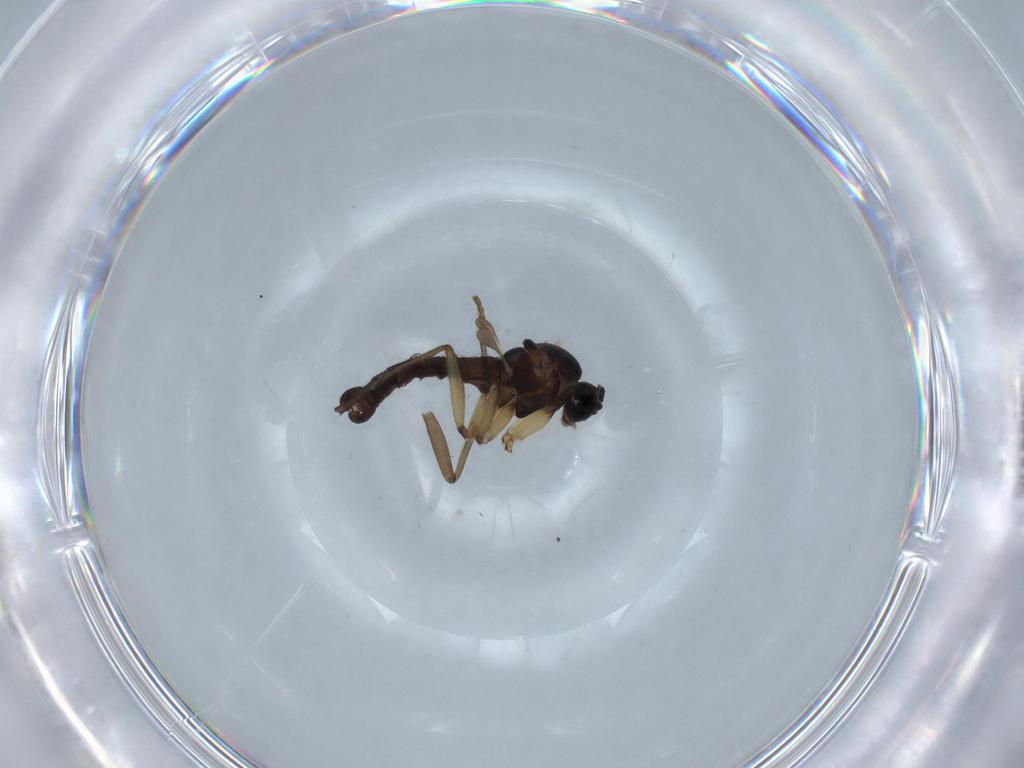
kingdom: Animalia
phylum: Arthropoda
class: Insecta
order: Diptera
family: Sciaridae
